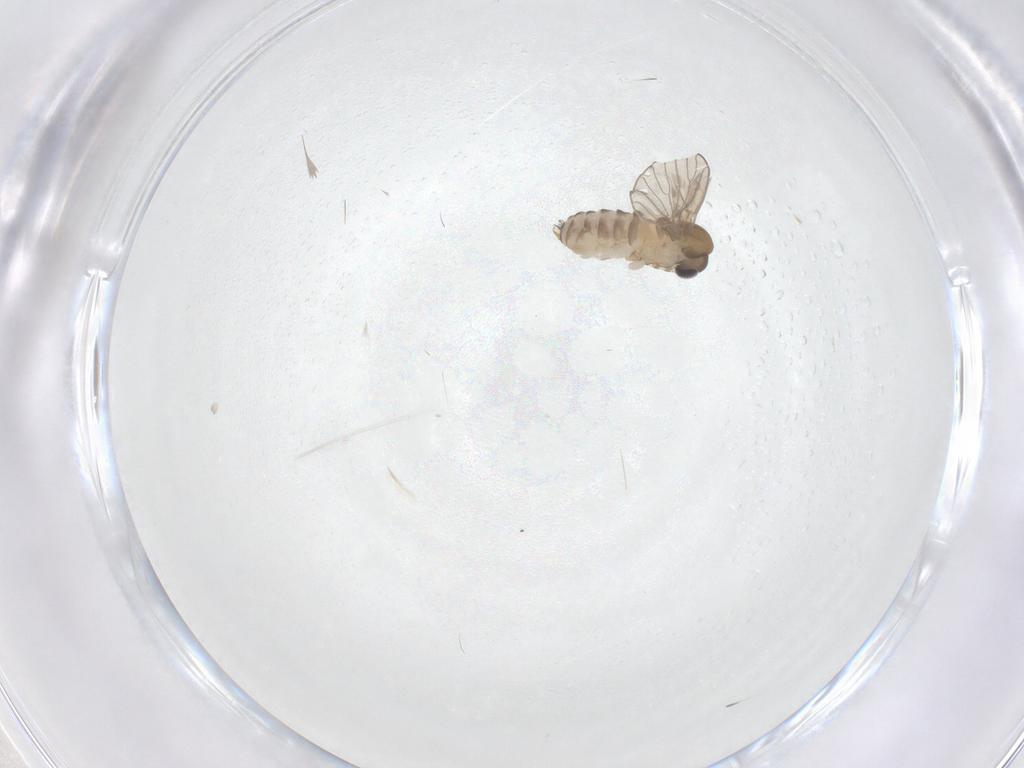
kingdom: Animalia
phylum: Arthropoda
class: Insecta
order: Diptera
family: Psychodidae
